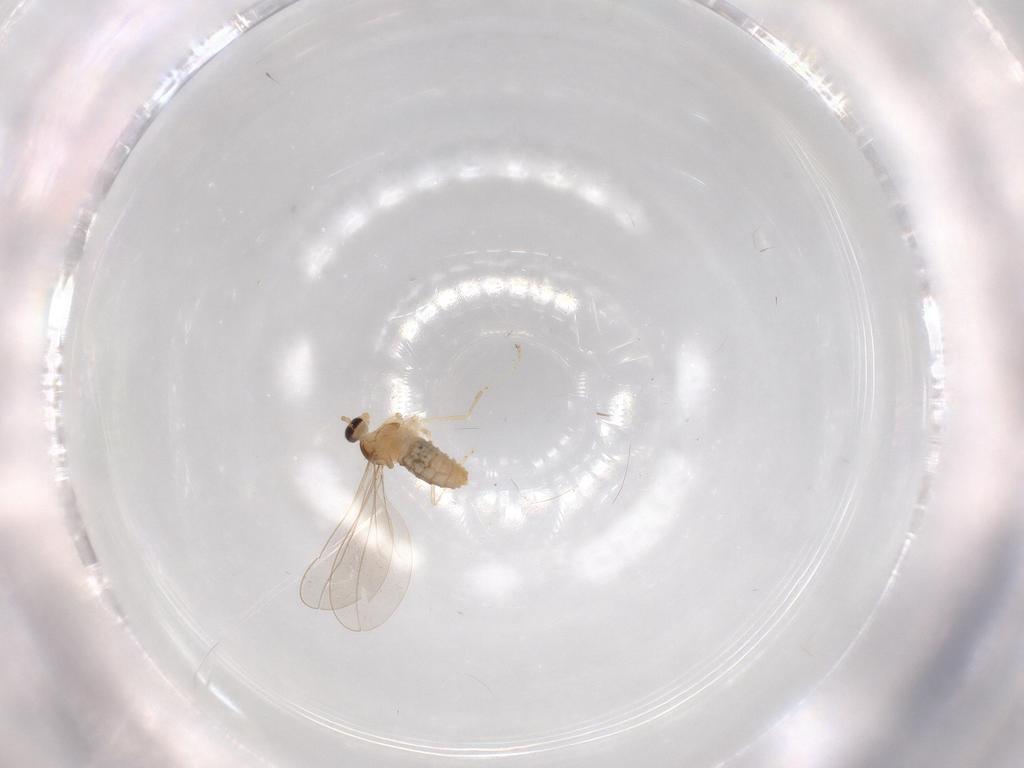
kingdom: Animalia
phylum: Arthropoda
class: Insecta
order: Diptera
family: Cecidomyiidae
